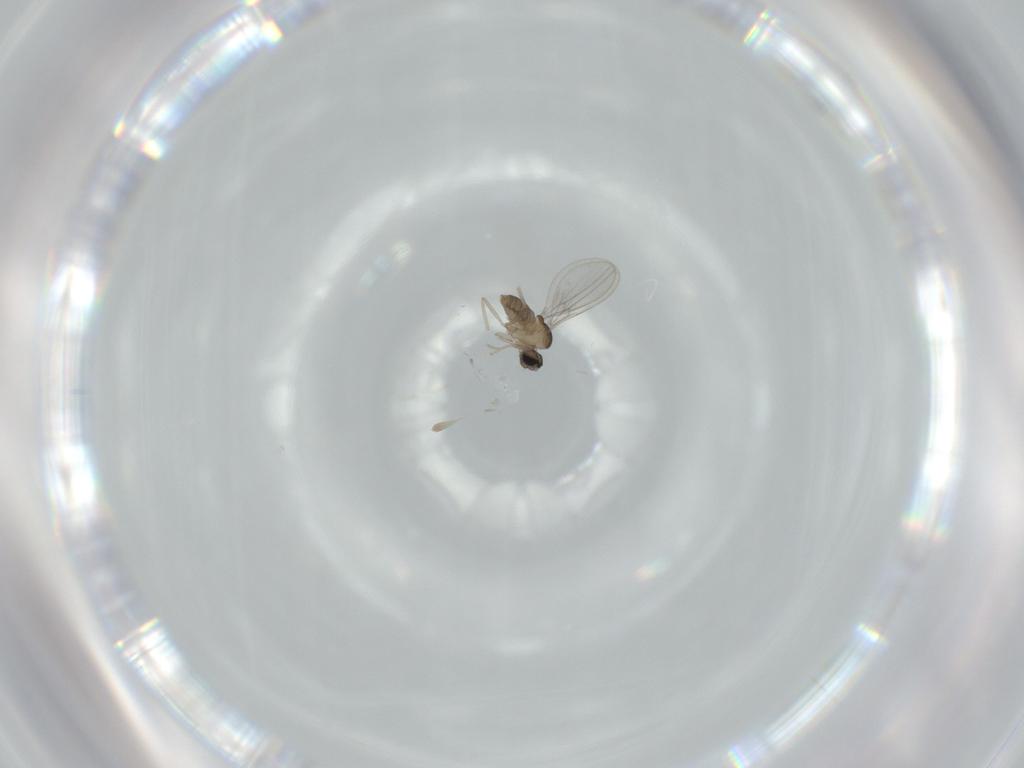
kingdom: Animalia
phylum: Arthropoda
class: Insecta
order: Diptera
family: Cecidomyiidae
